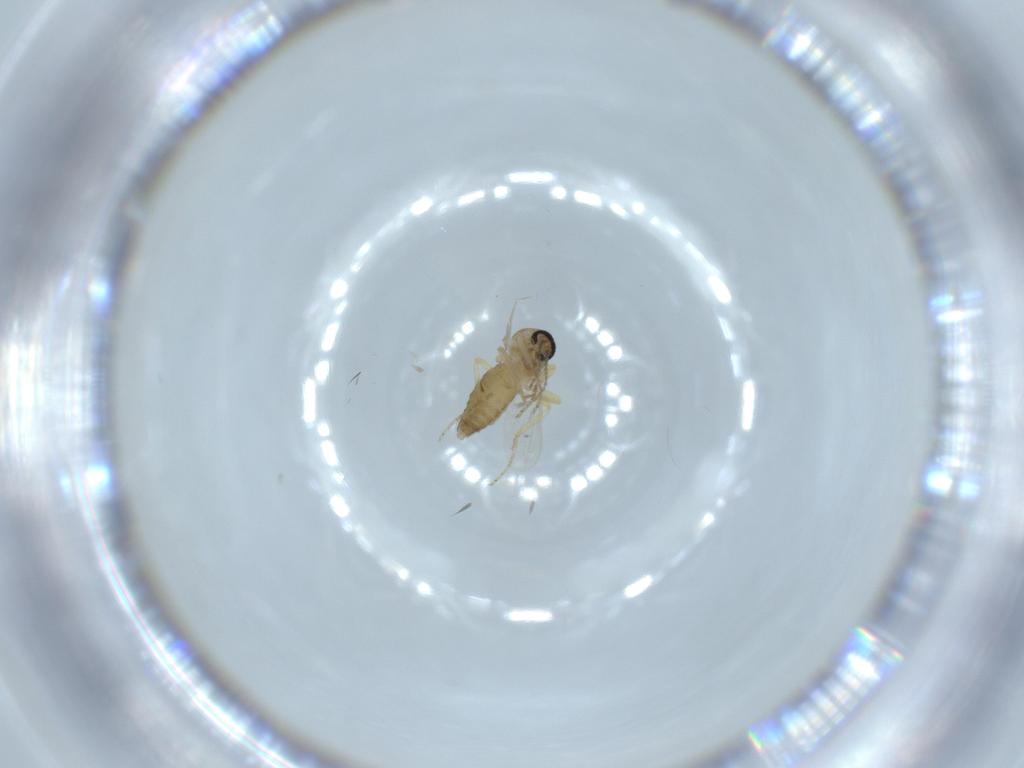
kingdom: Animalia
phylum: Arthropoda
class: Insecta
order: Diptera
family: Ceratopogonidae
